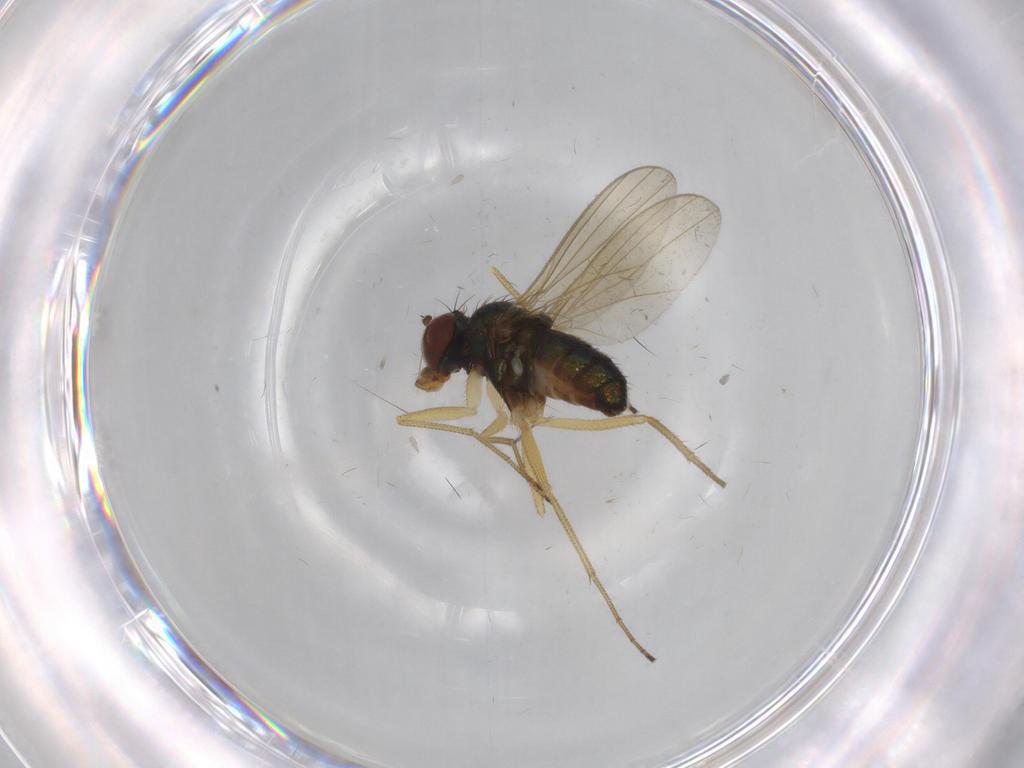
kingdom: Animalia
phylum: Arthropoda
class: Insecta
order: Diptera
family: Dolichopodidae
